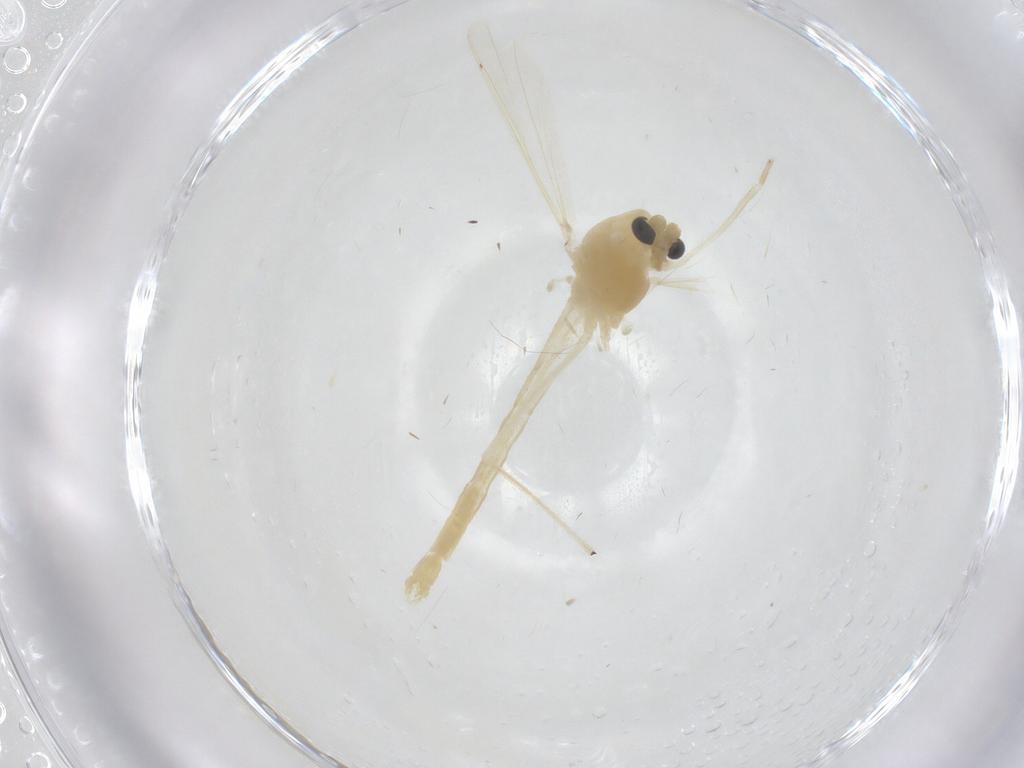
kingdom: Animalia
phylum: Arthropoda
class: Insecta
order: Diptera
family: Chironomidae
